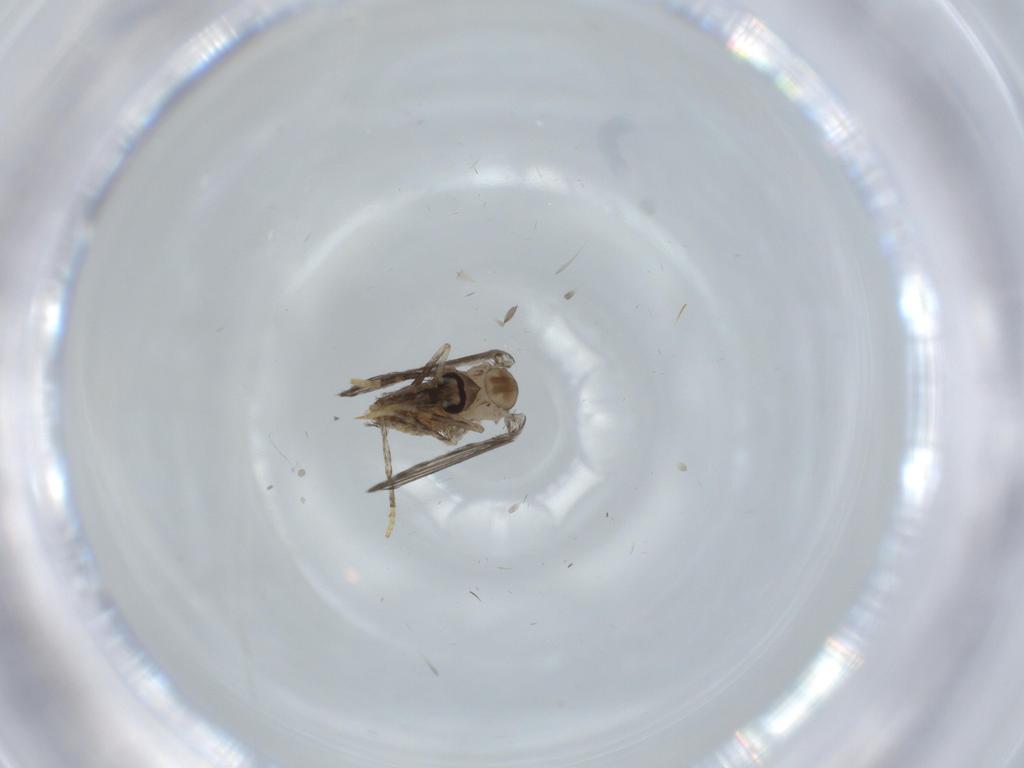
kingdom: Animalia
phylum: Arthropoda
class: Insecta
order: Diptera
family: Psychodidae
